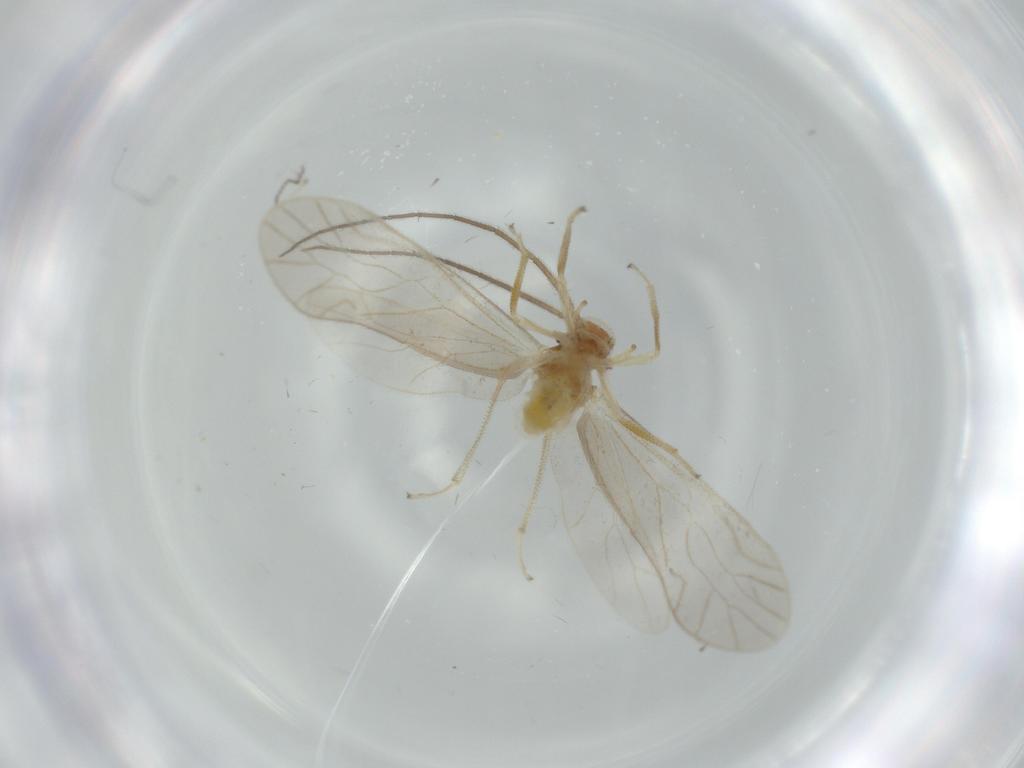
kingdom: Animalia
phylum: Arthropoda
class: Insecta
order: Psocodea
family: Caeciliusidae
